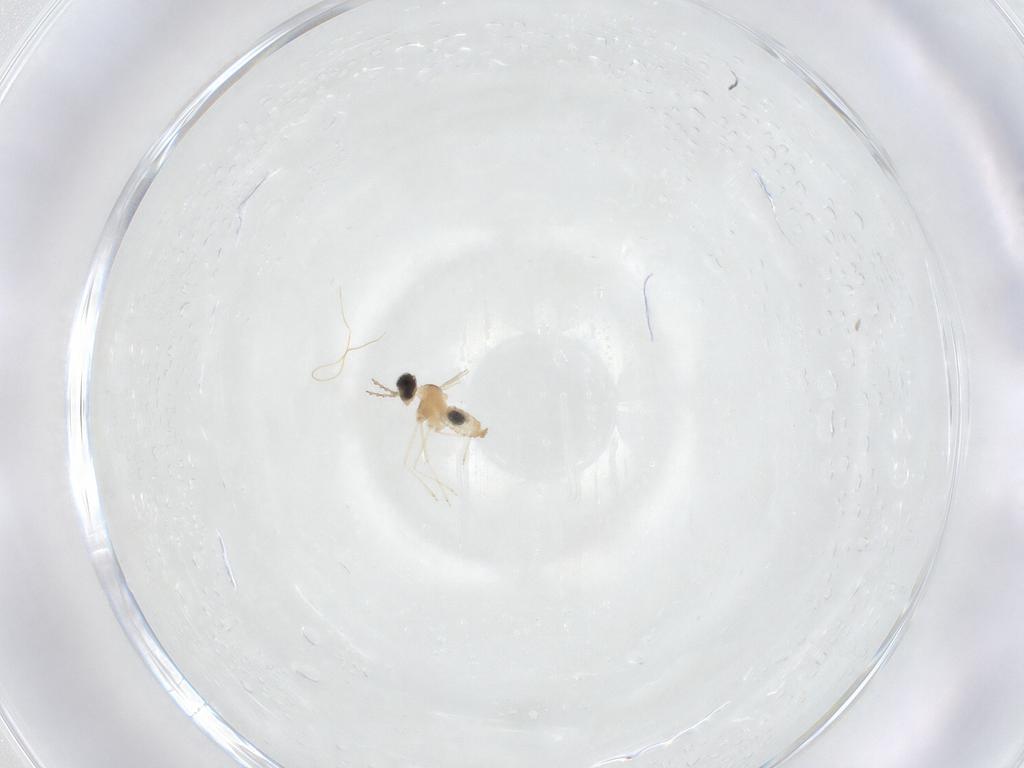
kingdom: Animalia
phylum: Arthropoda
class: Insecta
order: Diptera
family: Cecidomyiidae
